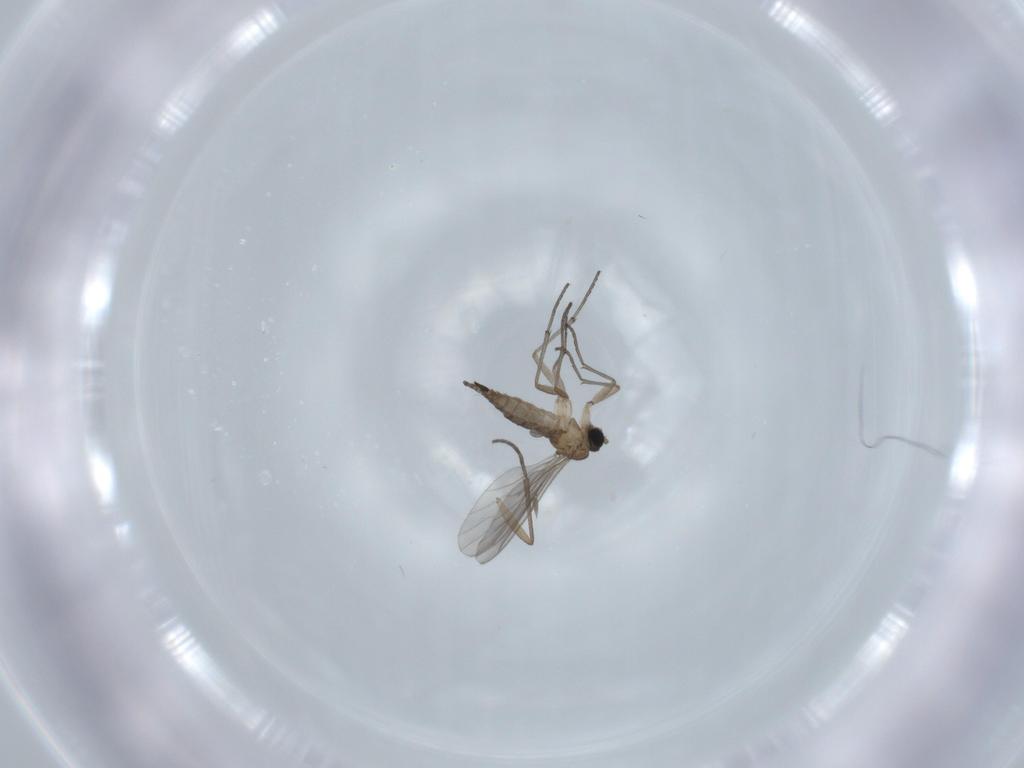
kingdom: Animalia
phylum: Arthropoda
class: Insecta
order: Diptera
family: Sciaridae
